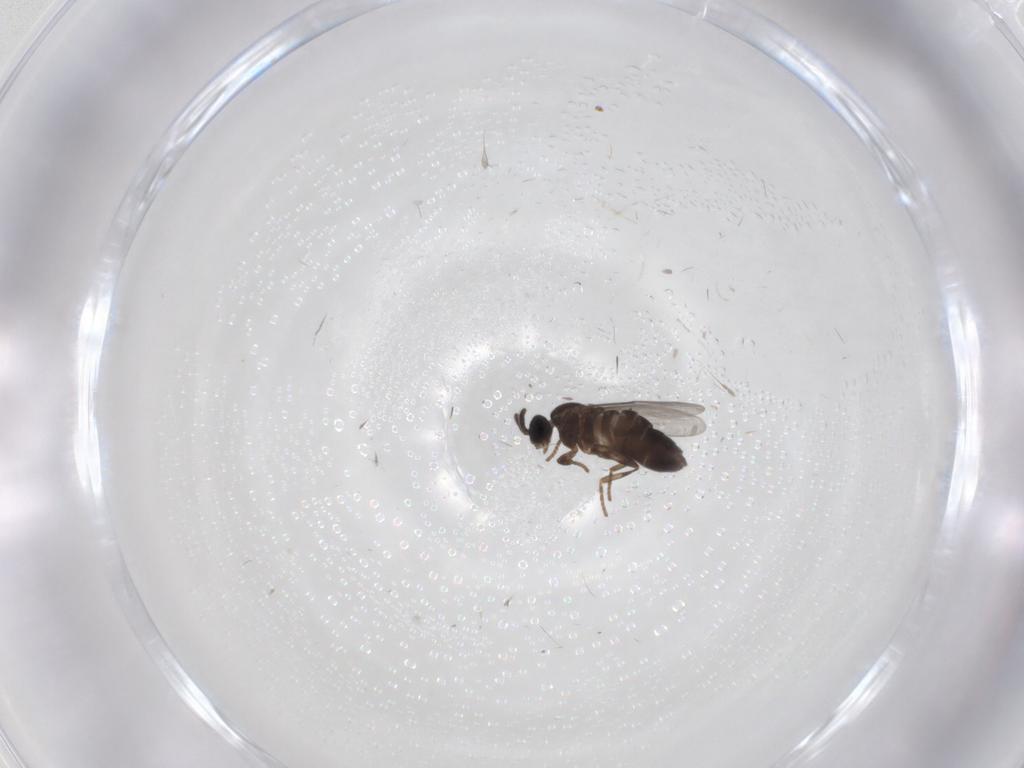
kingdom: Animalia
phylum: Arthropoda
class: Insecta
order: Diptera
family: Scatopsidae
